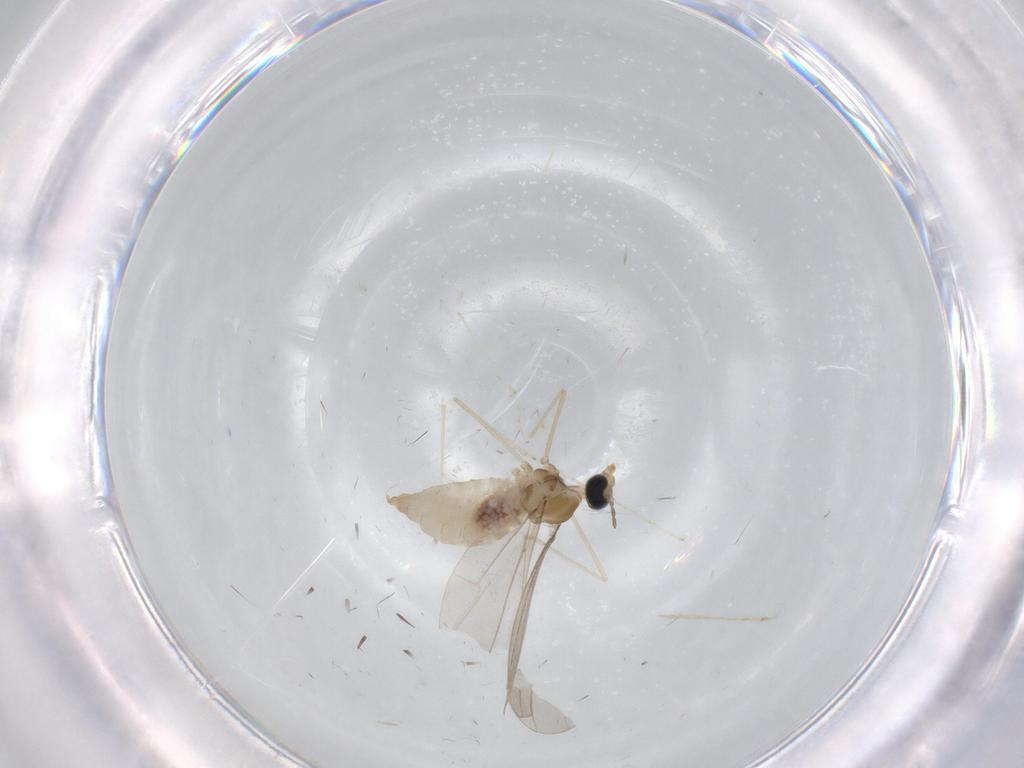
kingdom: Animalia
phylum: Arthropoda
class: Insecta
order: Diptera
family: Cecidomyiidae
